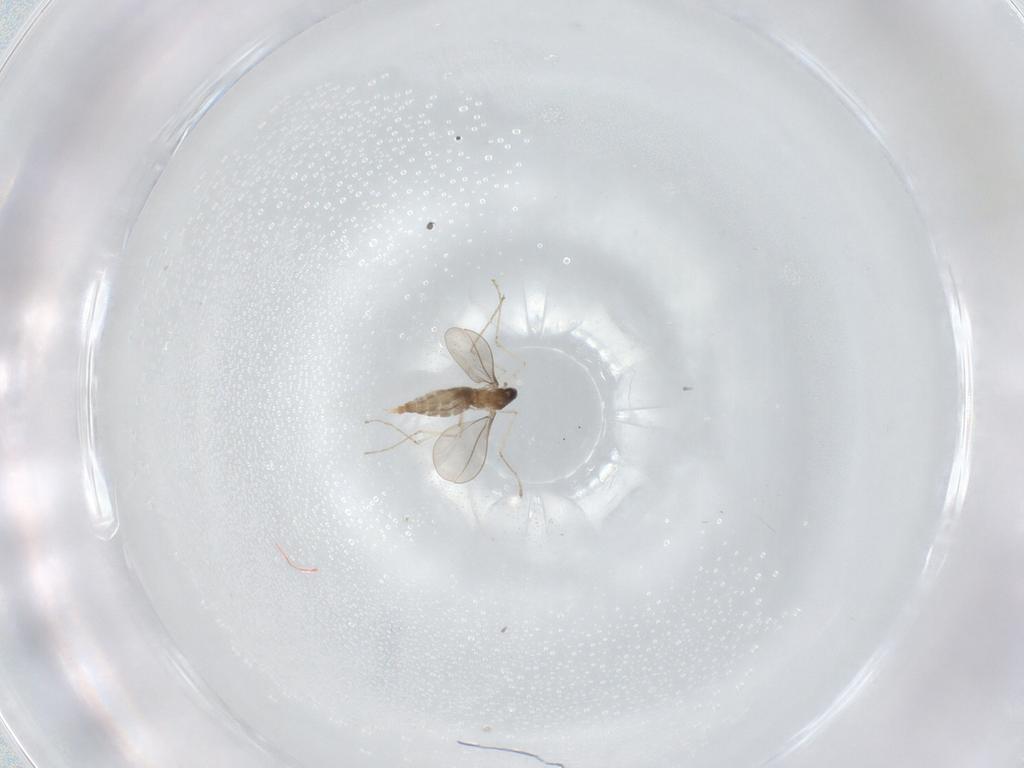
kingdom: Animalia
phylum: Arthropoda
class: Insecta
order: Diptera
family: Cecidomyiidae
